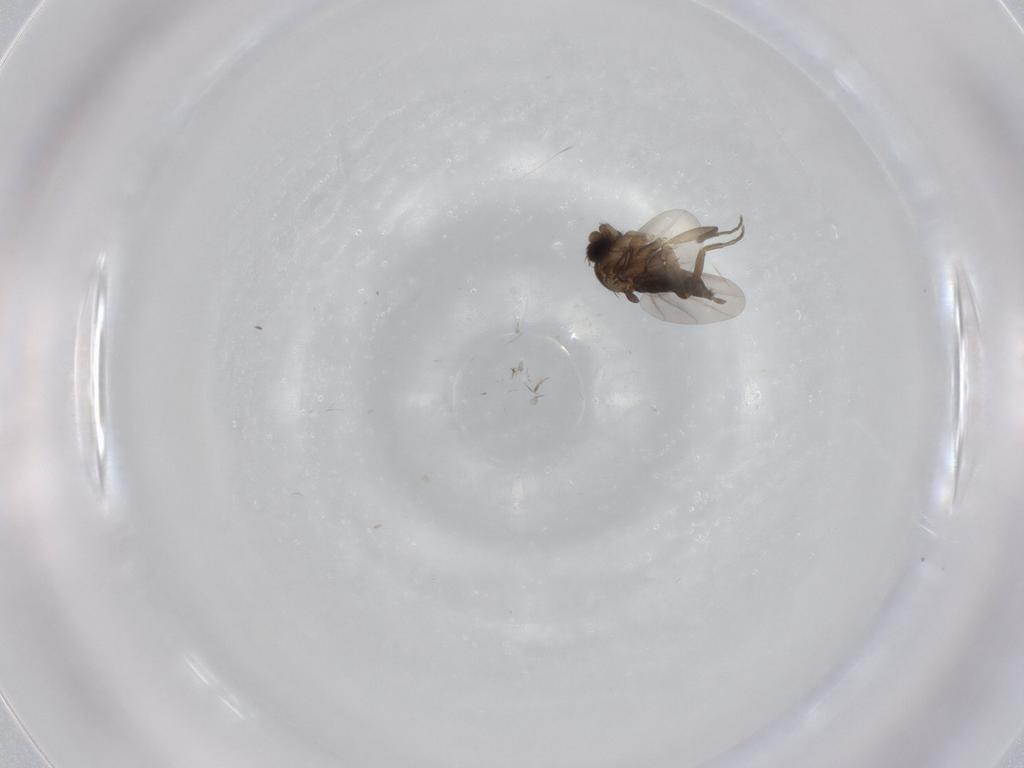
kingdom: Animalia
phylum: Arthropoda
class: Insecta
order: Diptera
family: Phoridae
